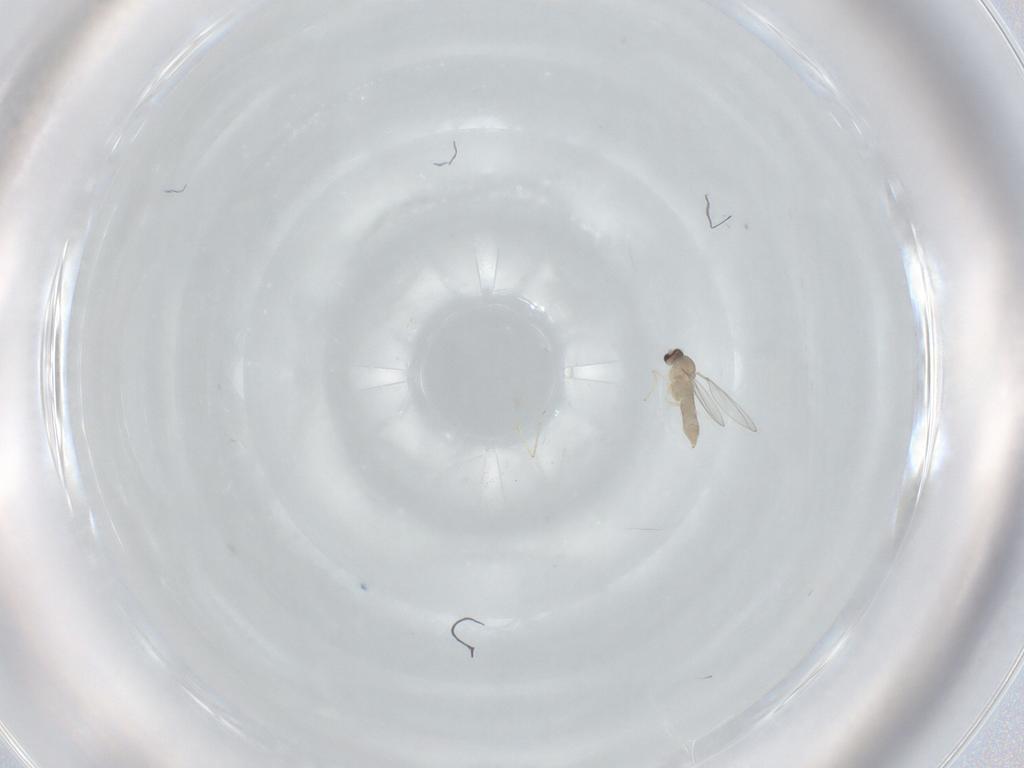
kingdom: Animalia
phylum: Arthropoda
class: Insecta
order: Diptera
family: Cecidomyiidae
